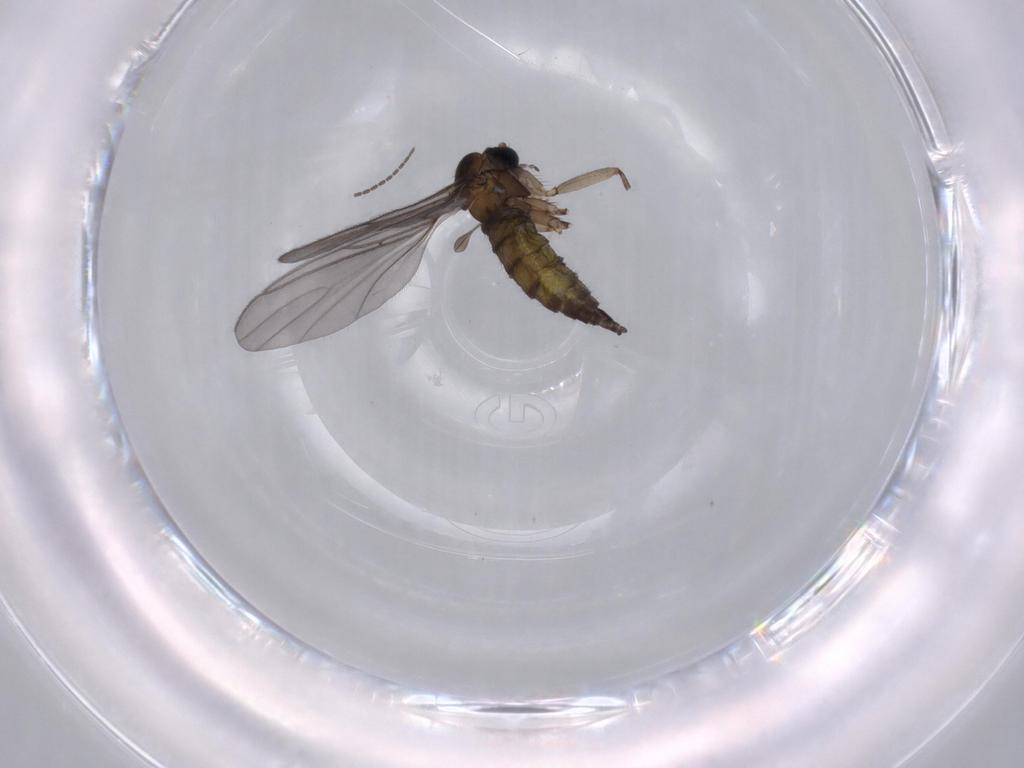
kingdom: Animalia
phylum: Arthropoda
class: Insecta
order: Diptera
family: Sciaridae
